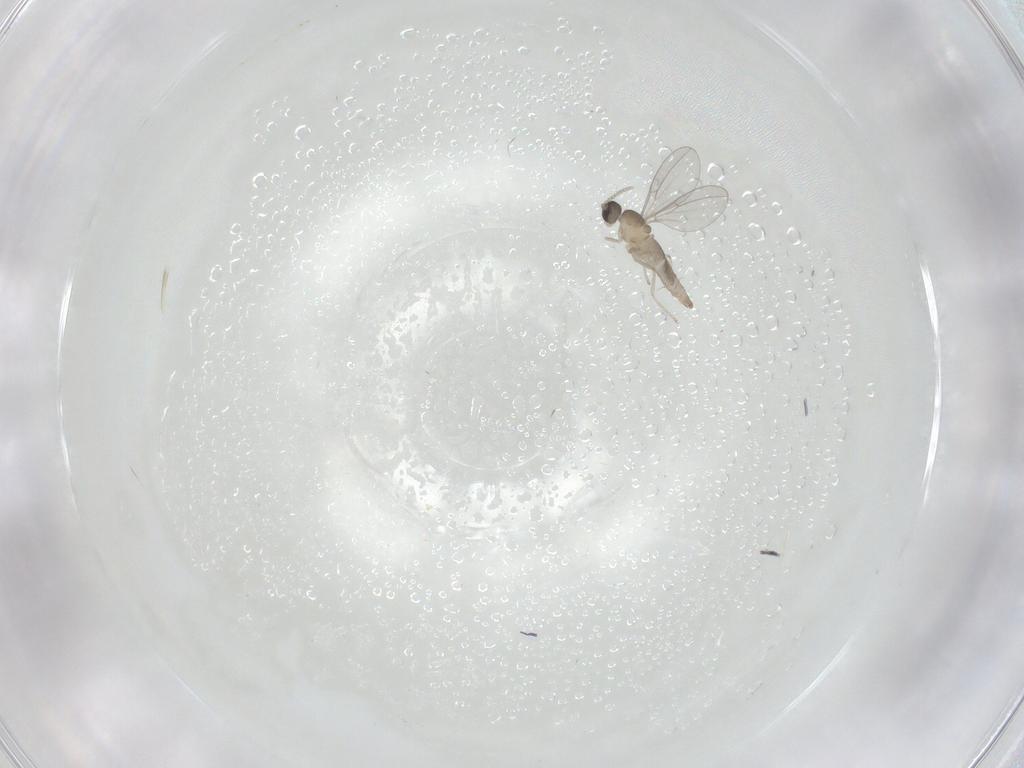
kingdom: Animalia
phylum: Arthropoda
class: Insecta
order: Diptera
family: Cecidomyiidae
